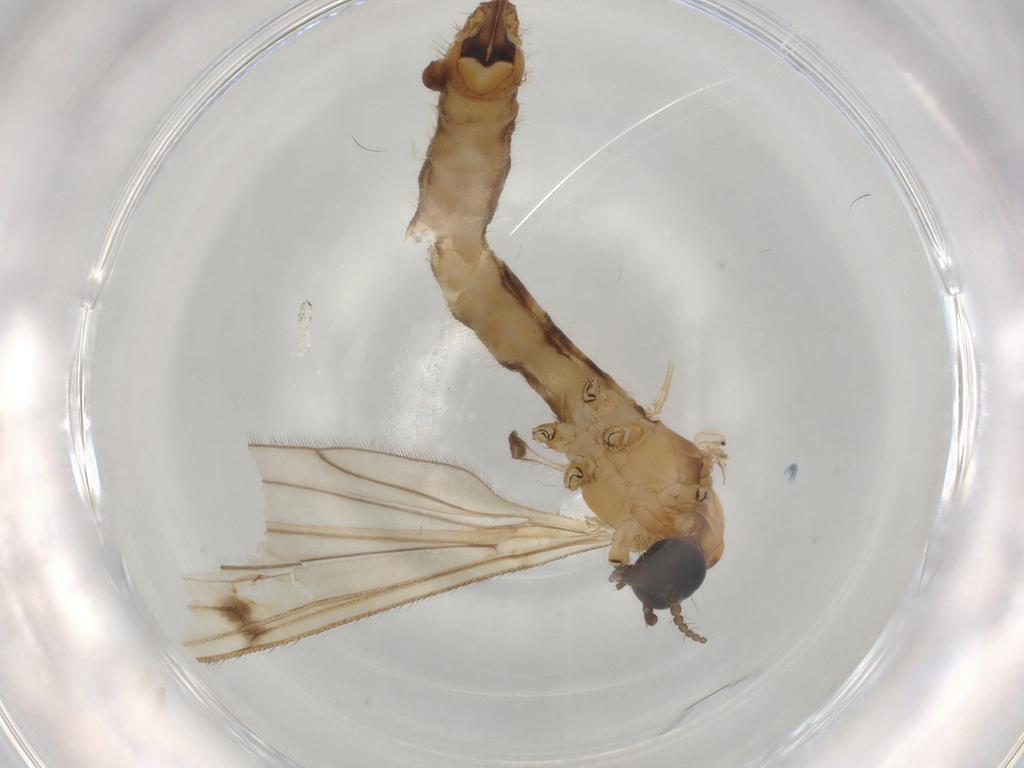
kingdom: Animalia
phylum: Arthropoda
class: Insecta
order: Diptera
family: Limoniidae
